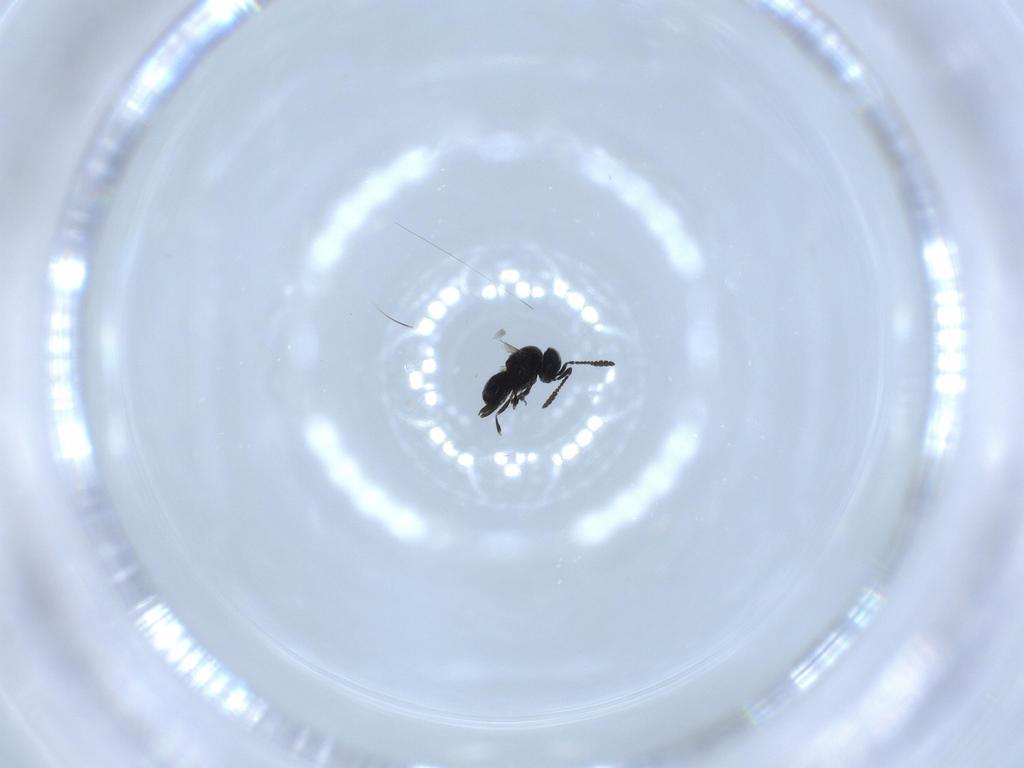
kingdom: Animalia
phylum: Arthropoda
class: Insecta
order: Hymenoptera
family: Scelionidae
